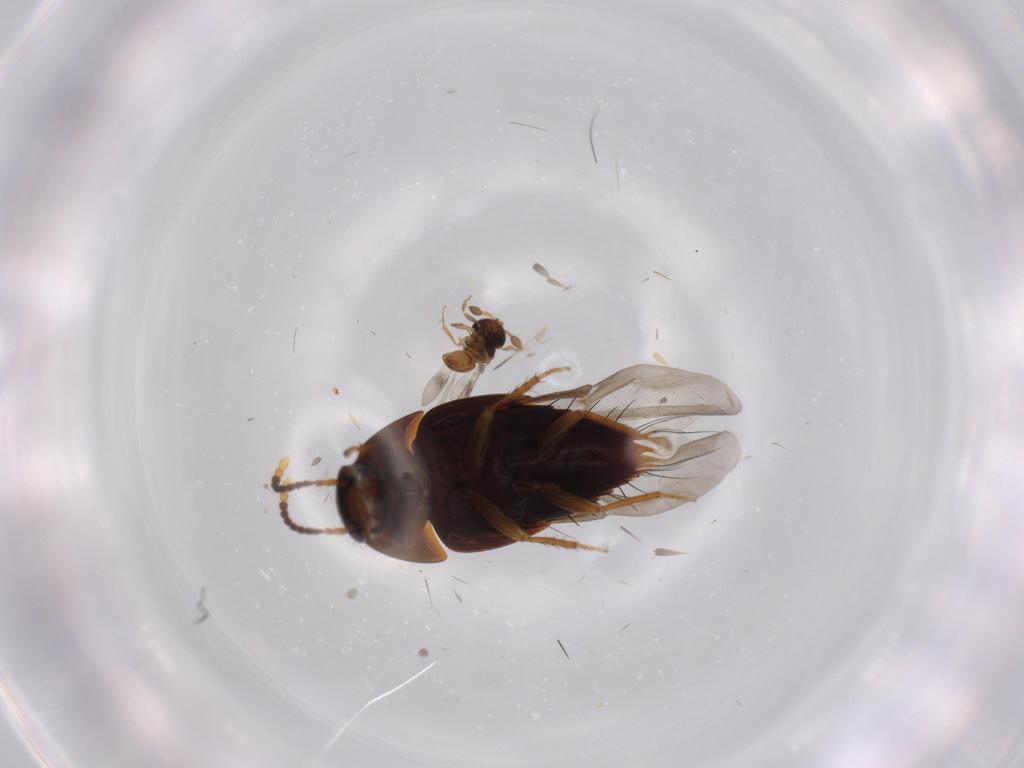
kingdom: Animalia
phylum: Arthropoda
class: Insecta
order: Hymenoptera
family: Scelionidae
